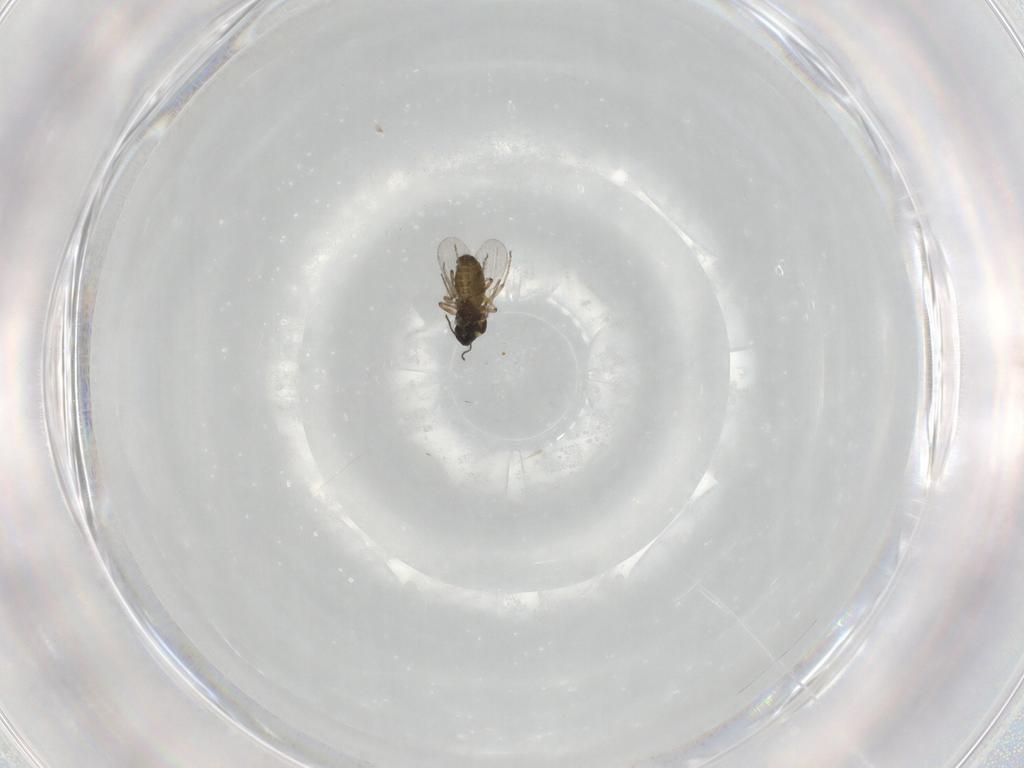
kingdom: Animalia
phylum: Arthropoda
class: Insecta
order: Diptera
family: Ceratopogonidae
